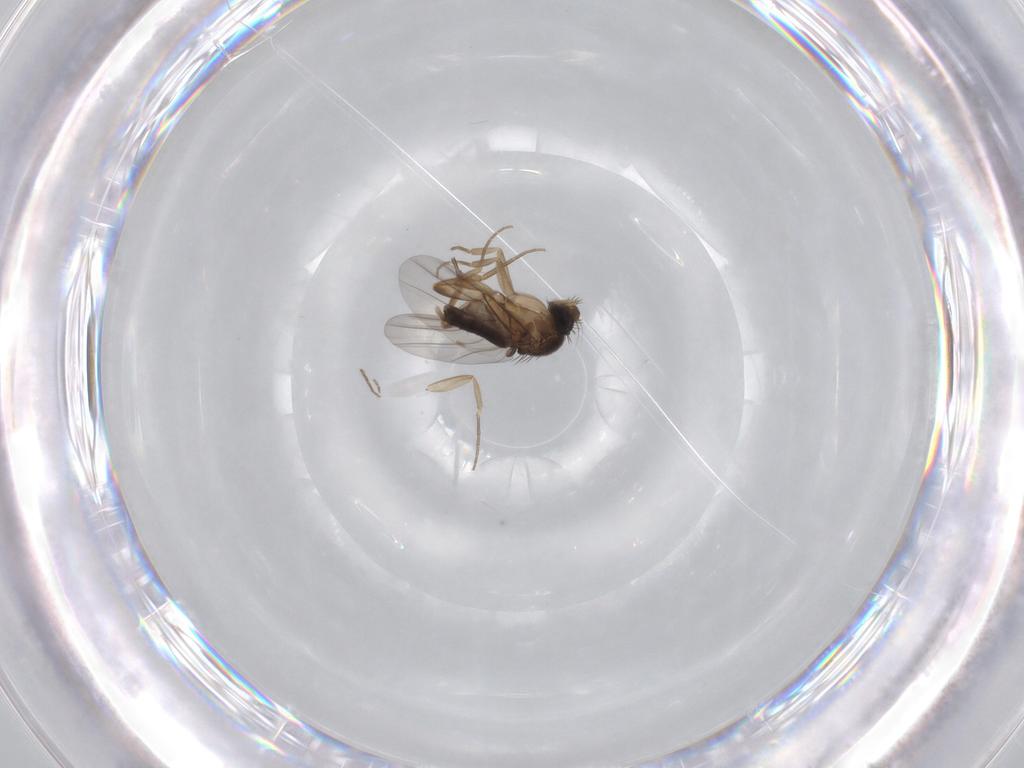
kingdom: Animalia
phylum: Arthropoda
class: Insecta
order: Diptera
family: Phoridae
